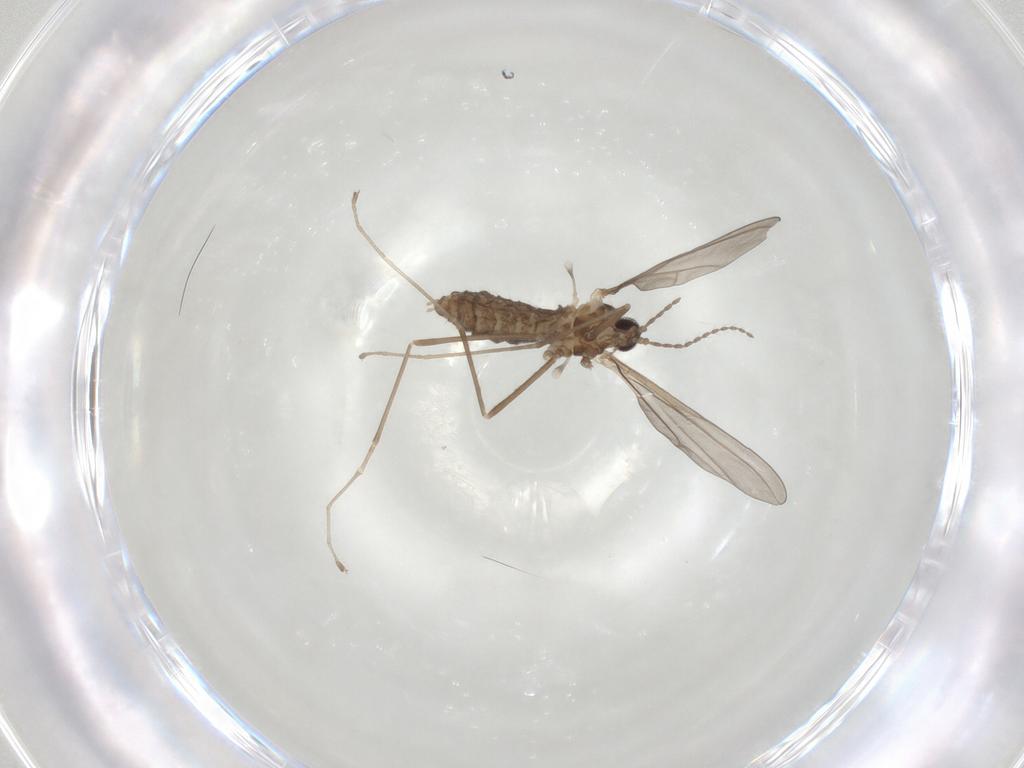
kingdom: Animalia
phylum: Arthropoda
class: Insecta
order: Diptera
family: Cecidomyiidae
